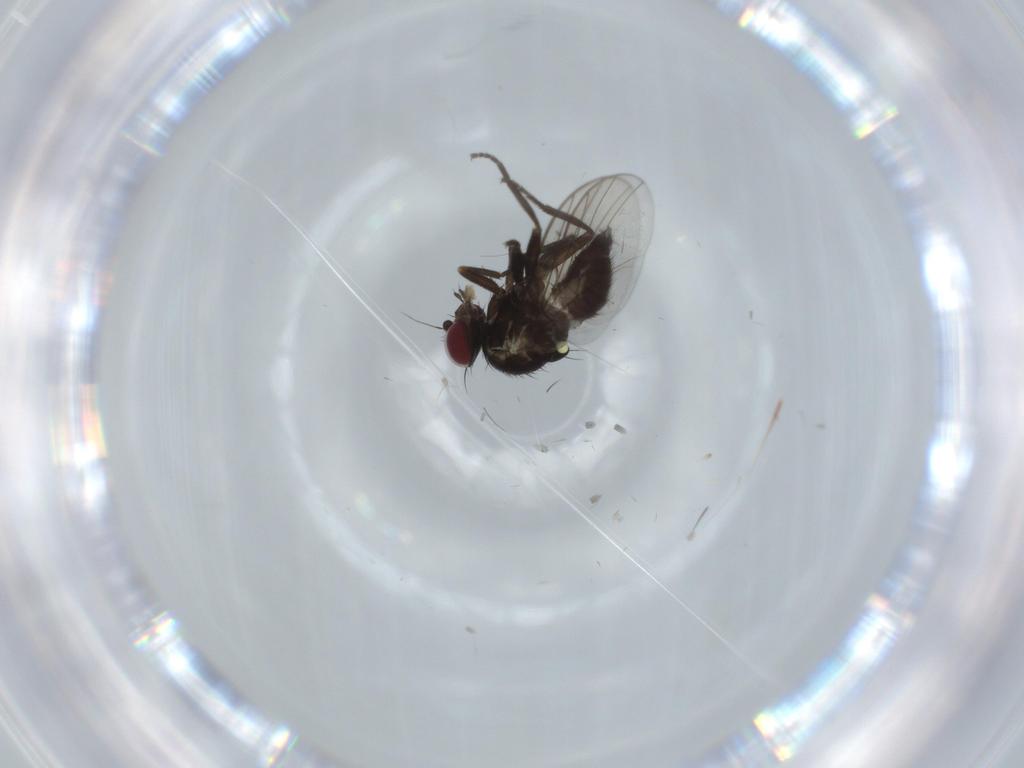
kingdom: Animalia
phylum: Arthropoda
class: Insecta
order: Diptera
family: Agromyzidae
